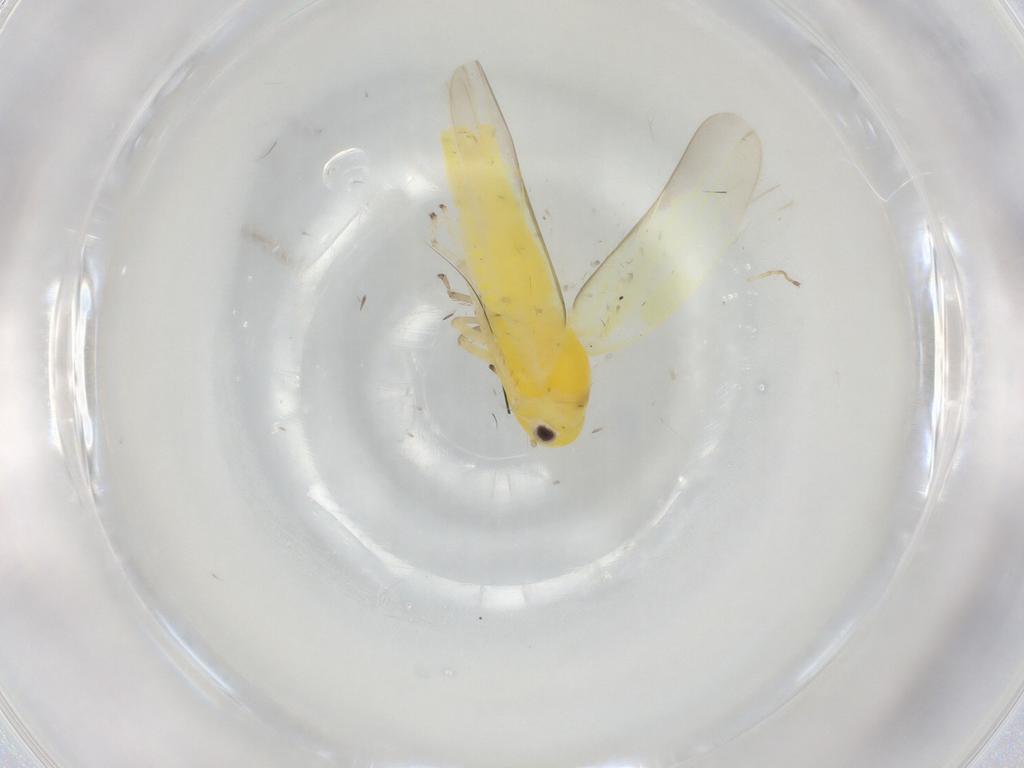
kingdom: Animalia
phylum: Arthropoda
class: Insecta
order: Hemiptera
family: Cicadellidae
